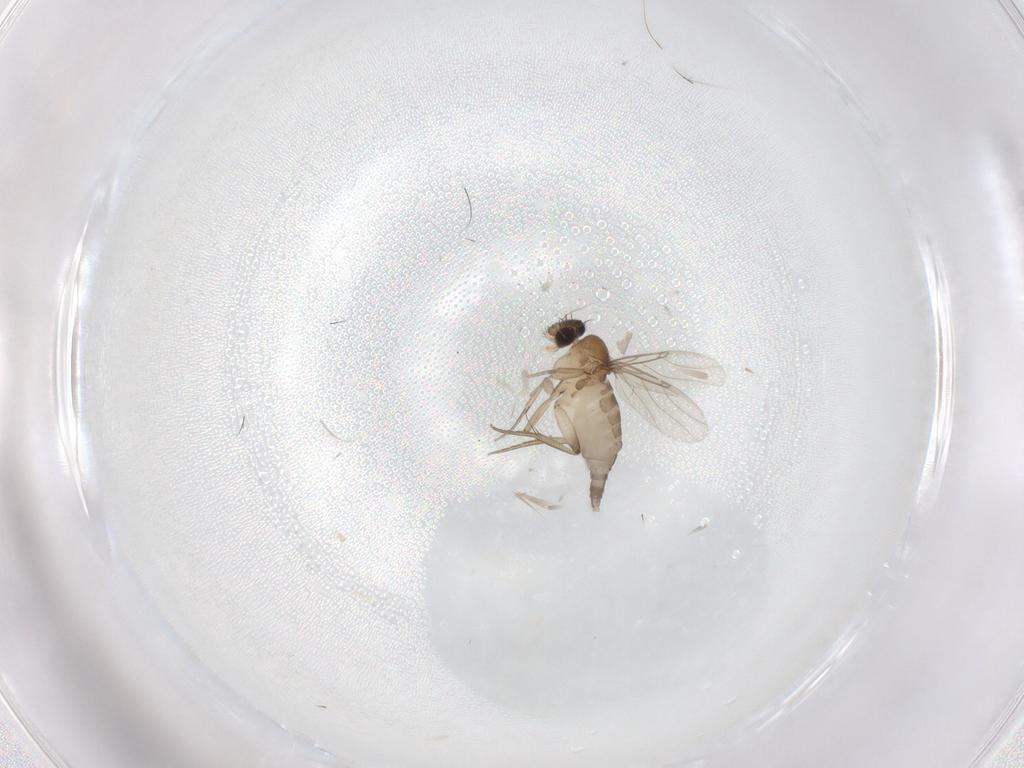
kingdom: Animalia
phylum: Arthropoda
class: Insecta
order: Diptera
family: Phoridae
